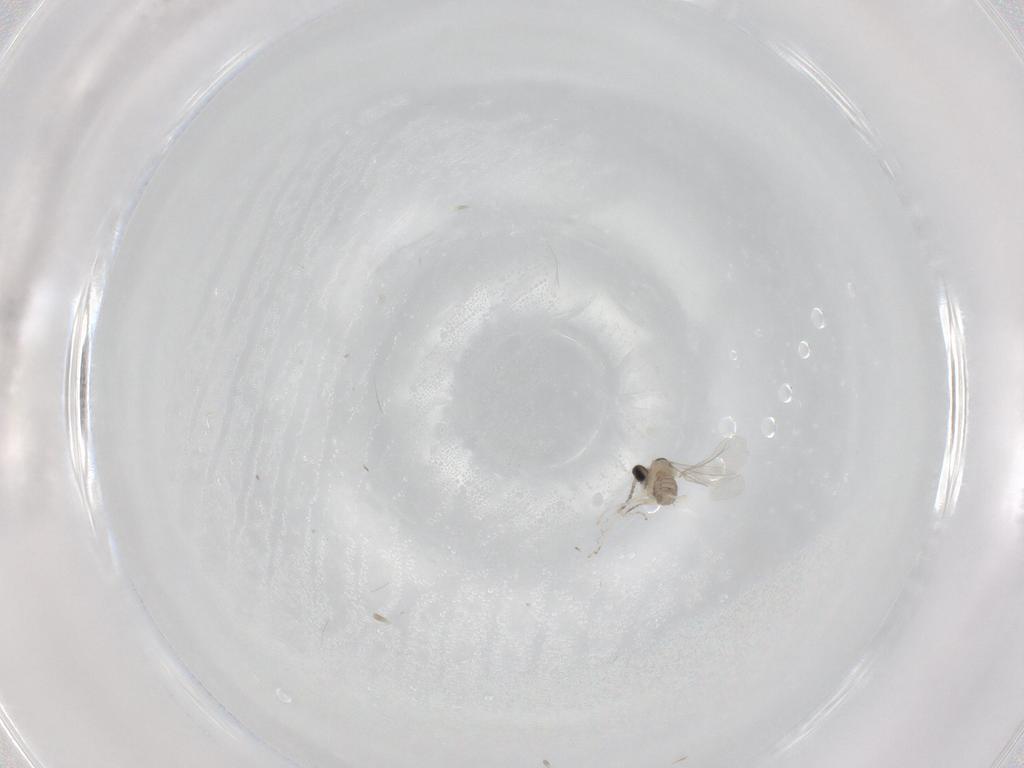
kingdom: Animalia
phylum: Arthropoda
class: Insecta
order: Diptera
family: Cecidomyiidae
